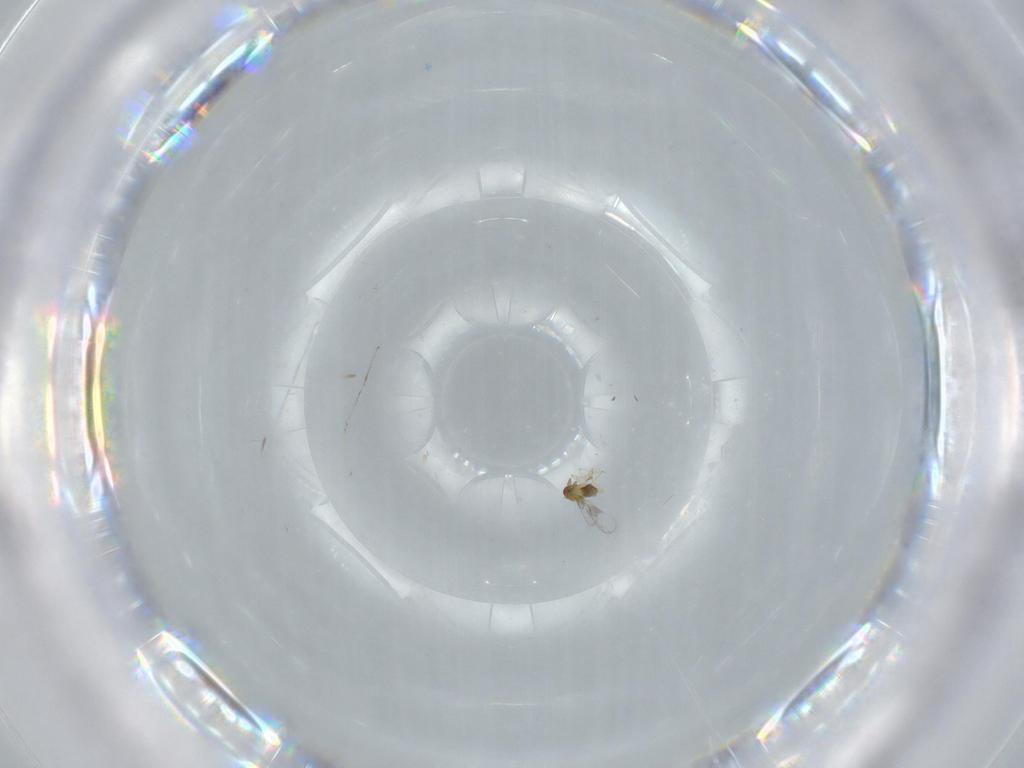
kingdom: Animalia
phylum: Arthropoda
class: Insecta
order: Hymenoptera
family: Trichogrammatidae
